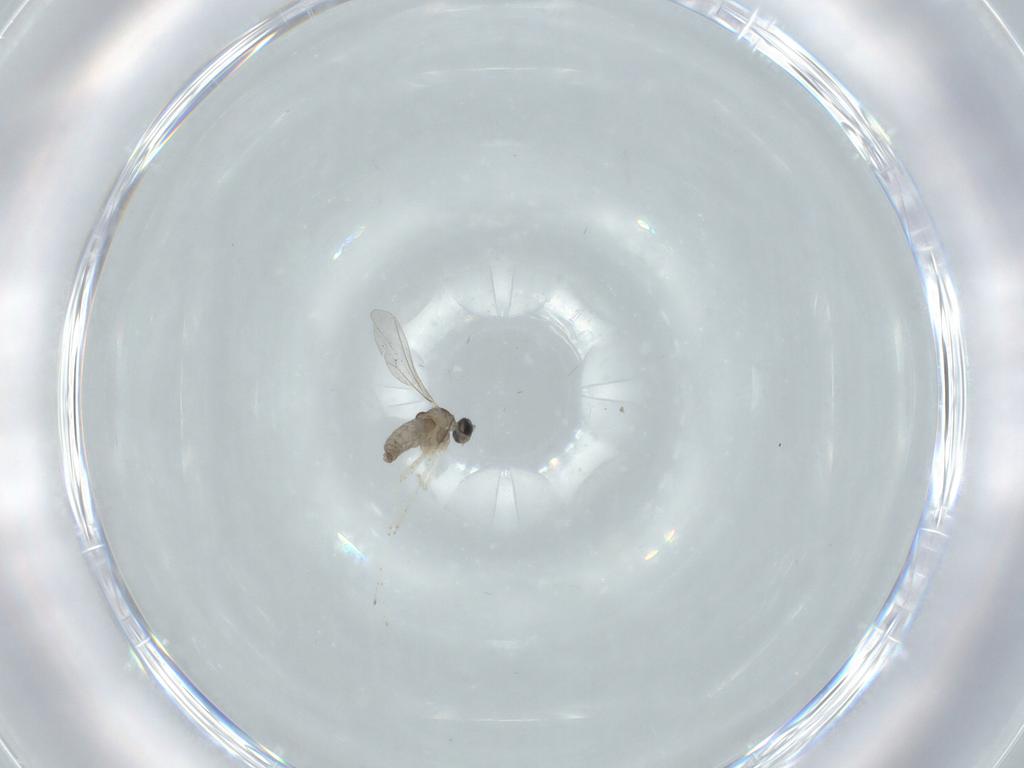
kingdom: Animalia
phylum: Arthropoda
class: Insecta
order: Diptera
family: Cecidomyiidae
